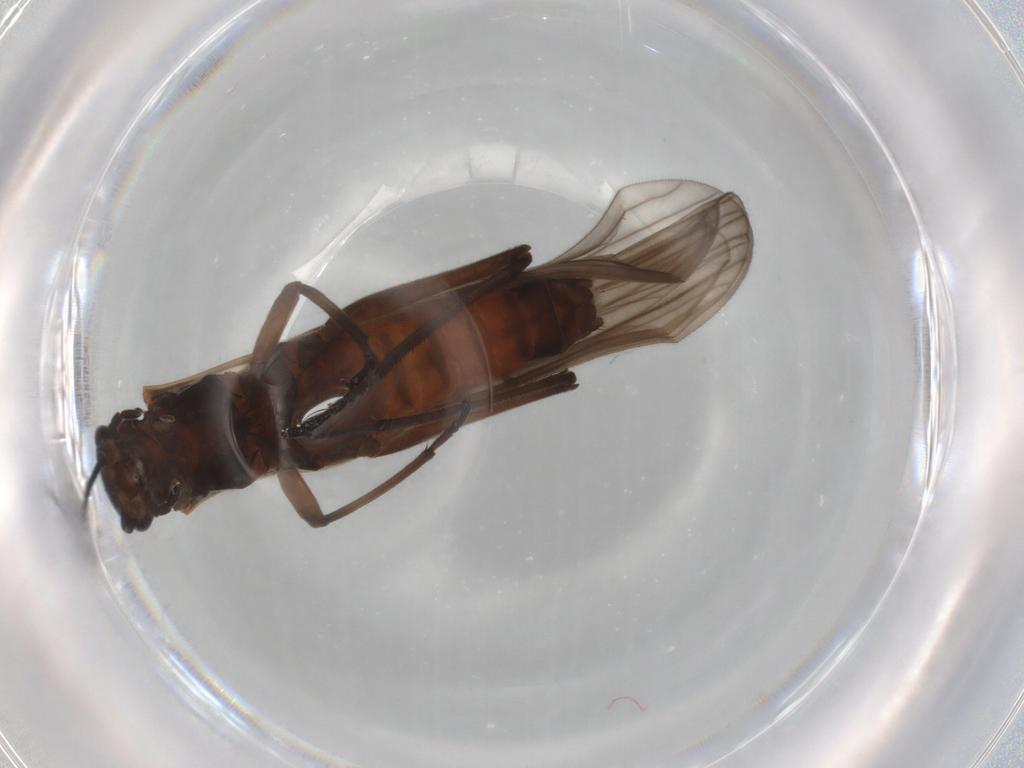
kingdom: Animalia
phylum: Arthropoda
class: Insecta
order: Plecoptera
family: Notonemouridae
